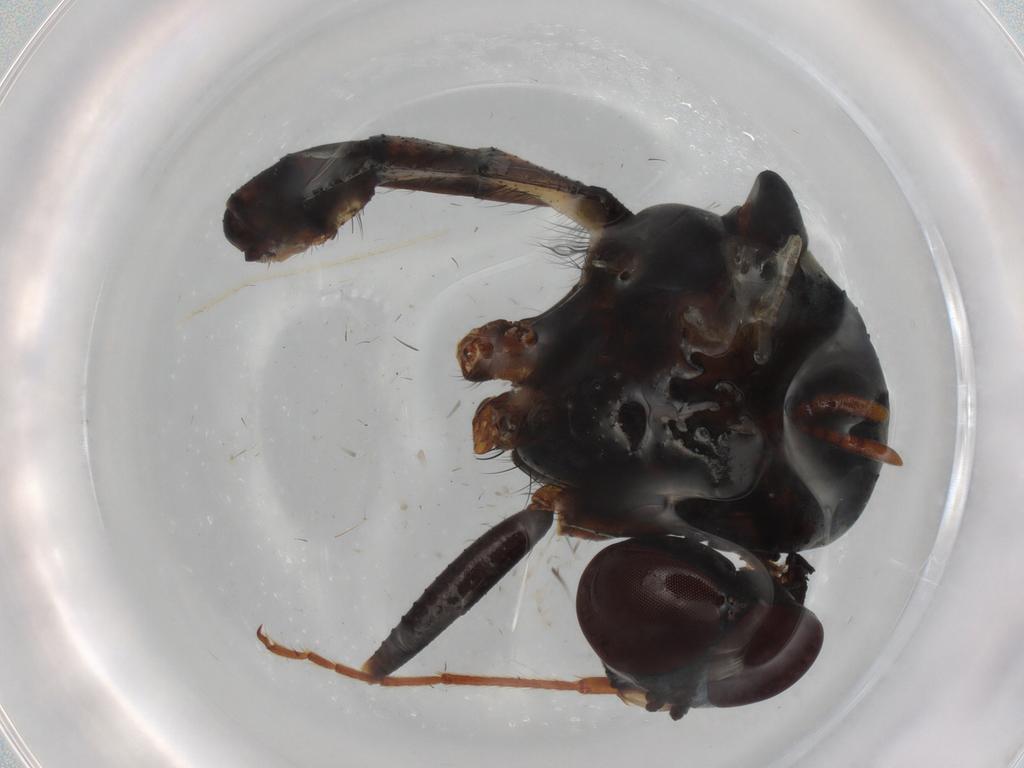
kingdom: Animalia
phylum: Arthropoda
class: Insecta
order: Diptera
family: Anthomyiidae
